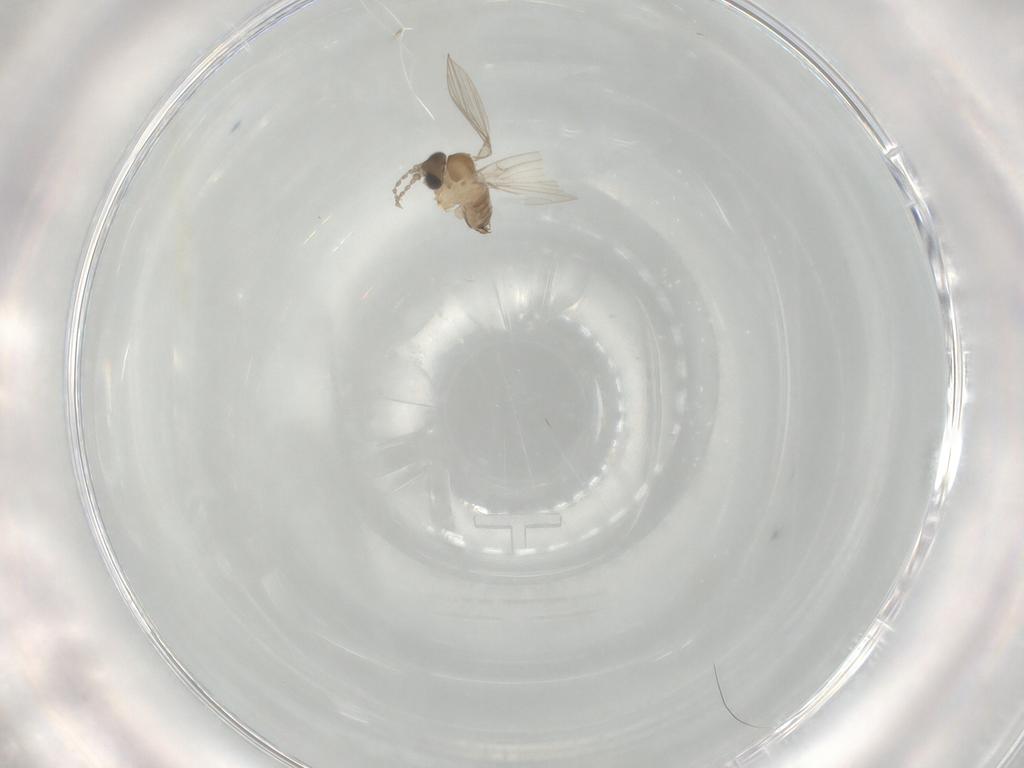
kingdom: Animalia
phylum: Arthropoda
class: Insecta
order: Diptera
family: Psychodidae
